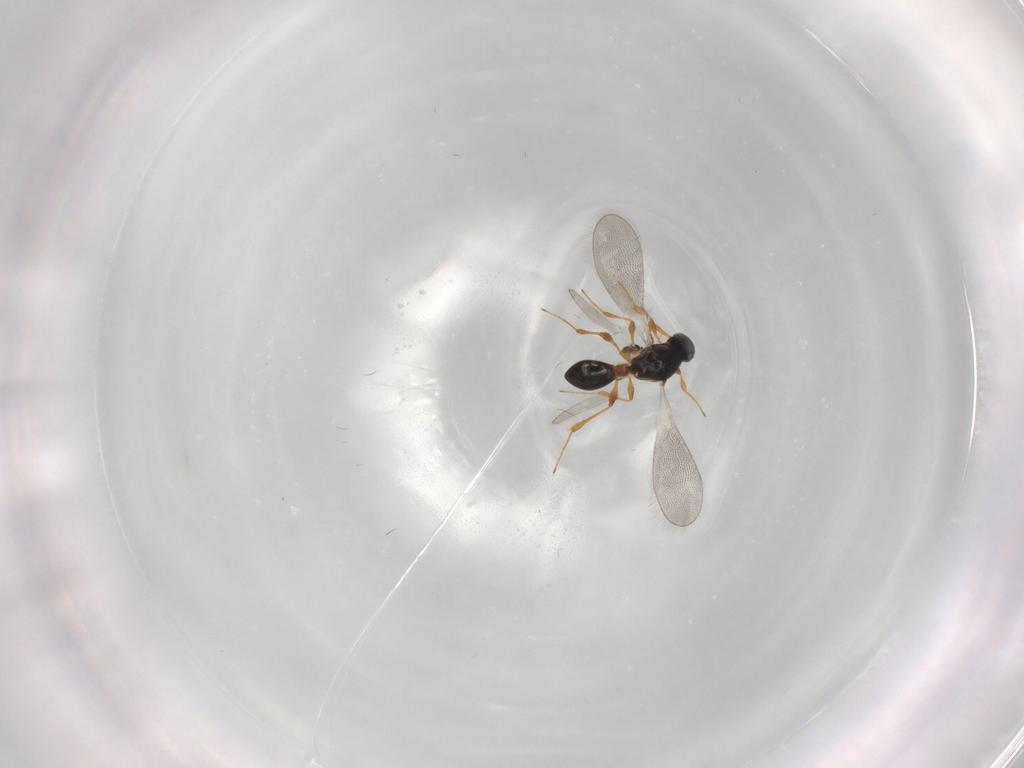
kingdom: Animalia
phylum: Arthropoda
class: Insecta
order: Hymenoptera
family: Platygastridae
